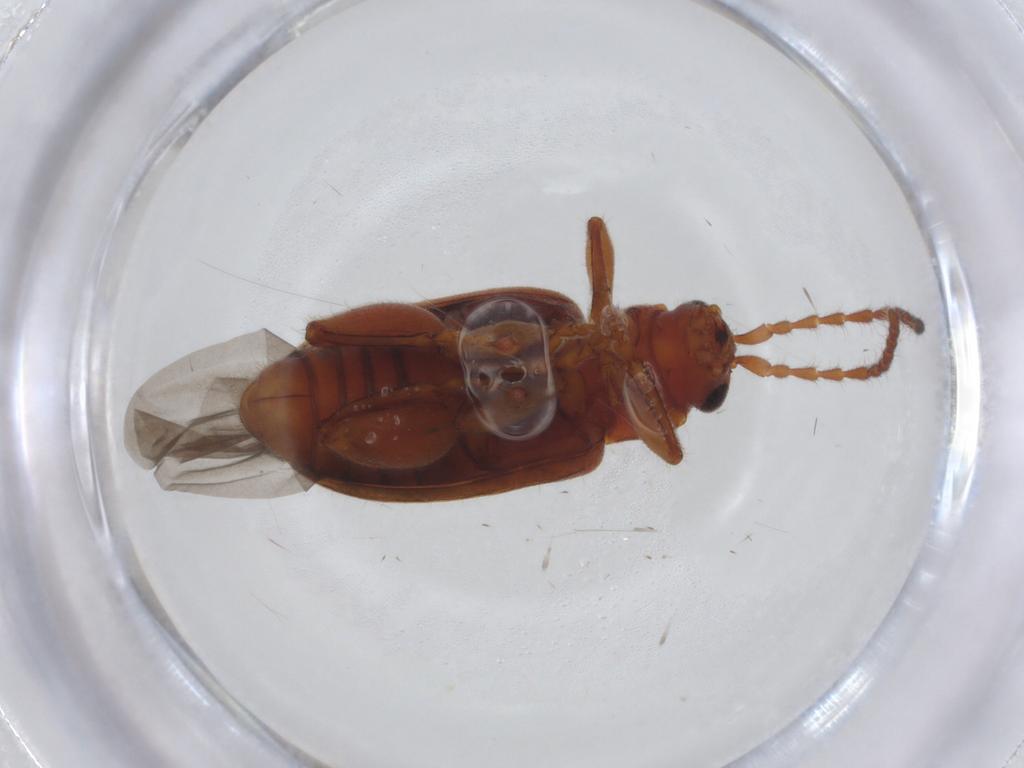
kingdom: Animalia
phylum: Arthropoda
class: Insecta
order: Coleoptera
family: Chrysomelidae
